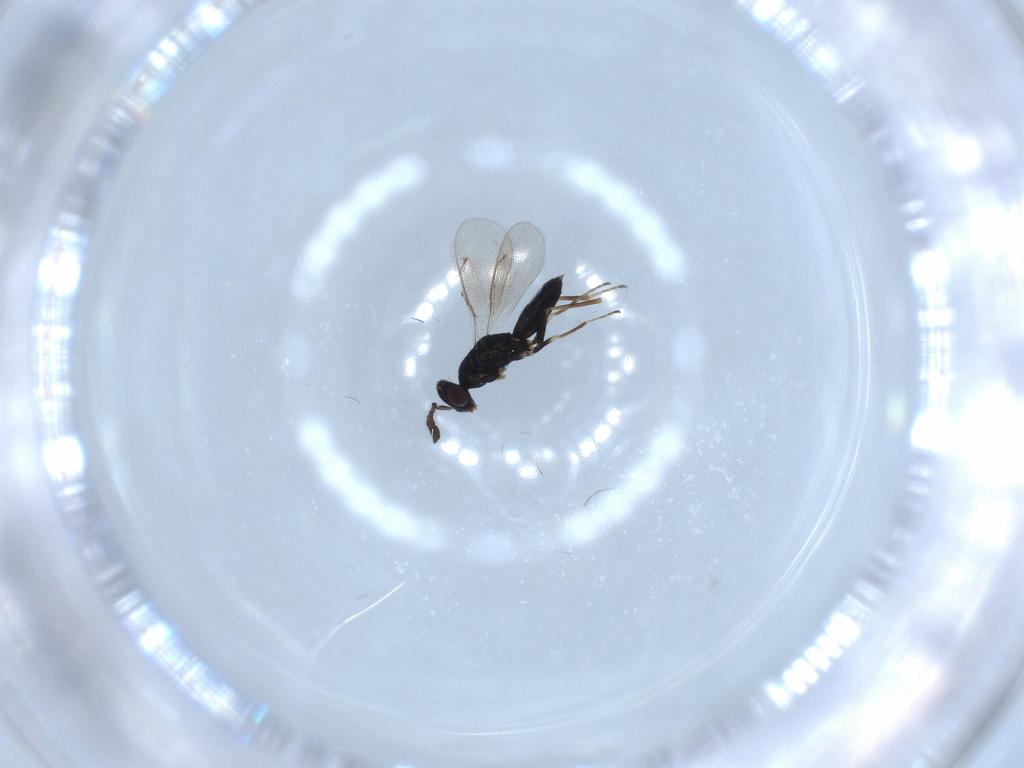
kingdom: Animalia
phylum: Arthropoda
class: Insecta
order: Hymenoptera
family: Eulophidae
